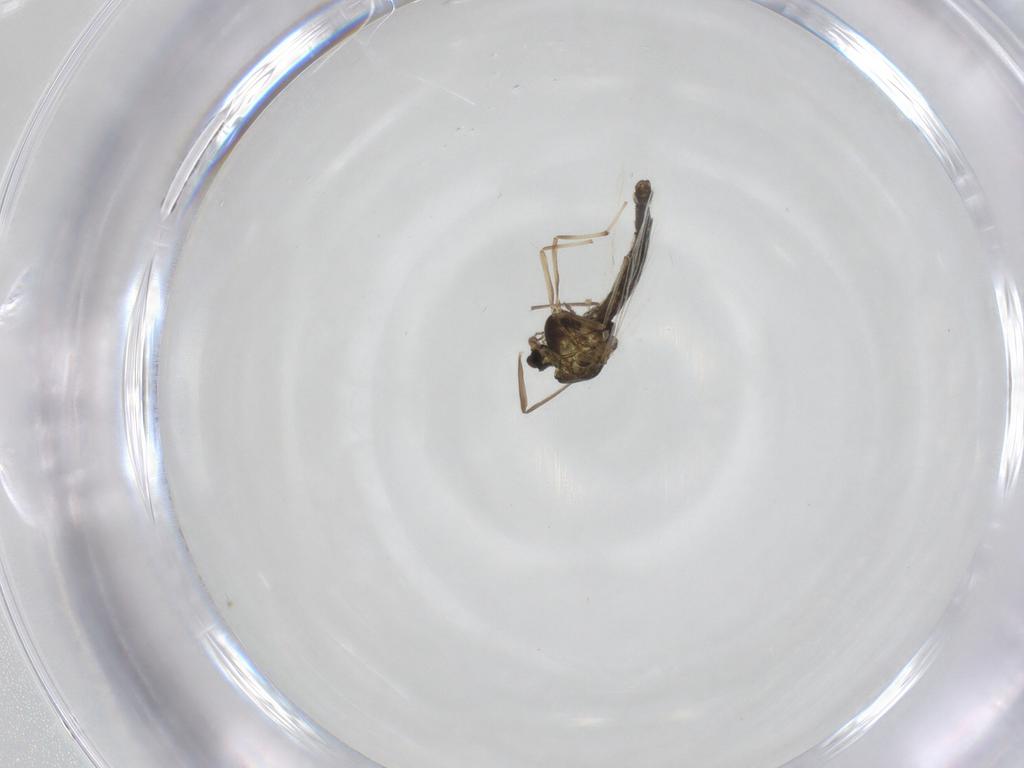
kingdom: Animalia
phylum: Arthropoda
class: Insecta
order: Diptera
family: Chironomidae
